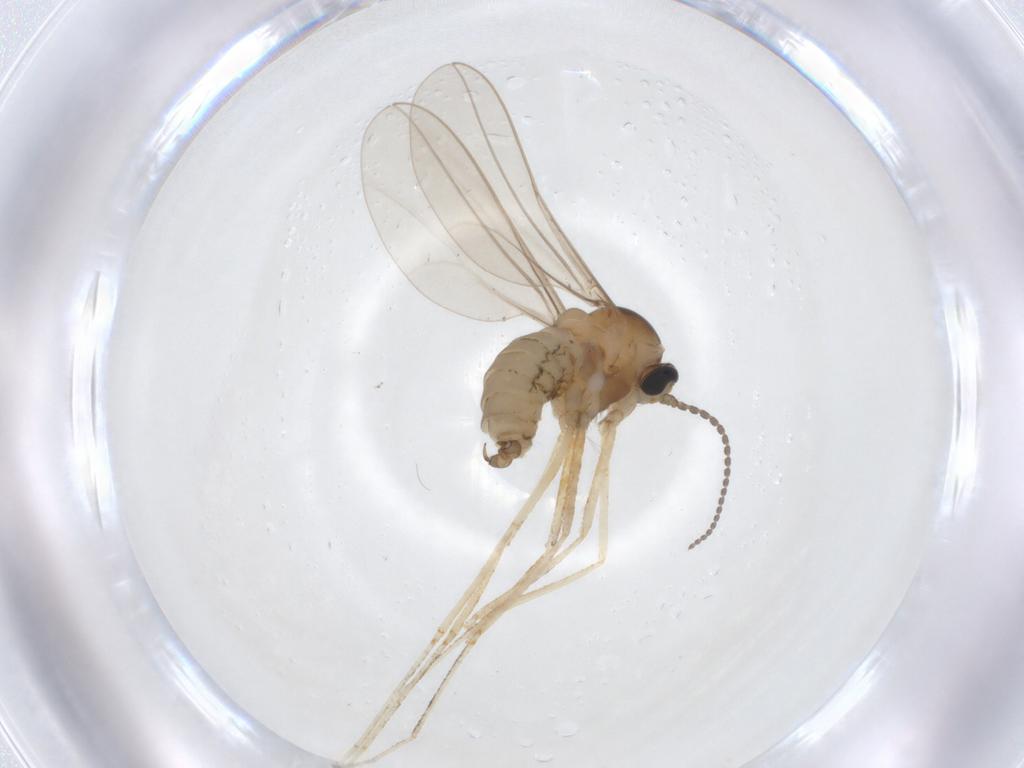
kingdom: Animalia
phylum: Arthropoda
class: Insecta
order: Diptera
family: Cecidomyiidae
